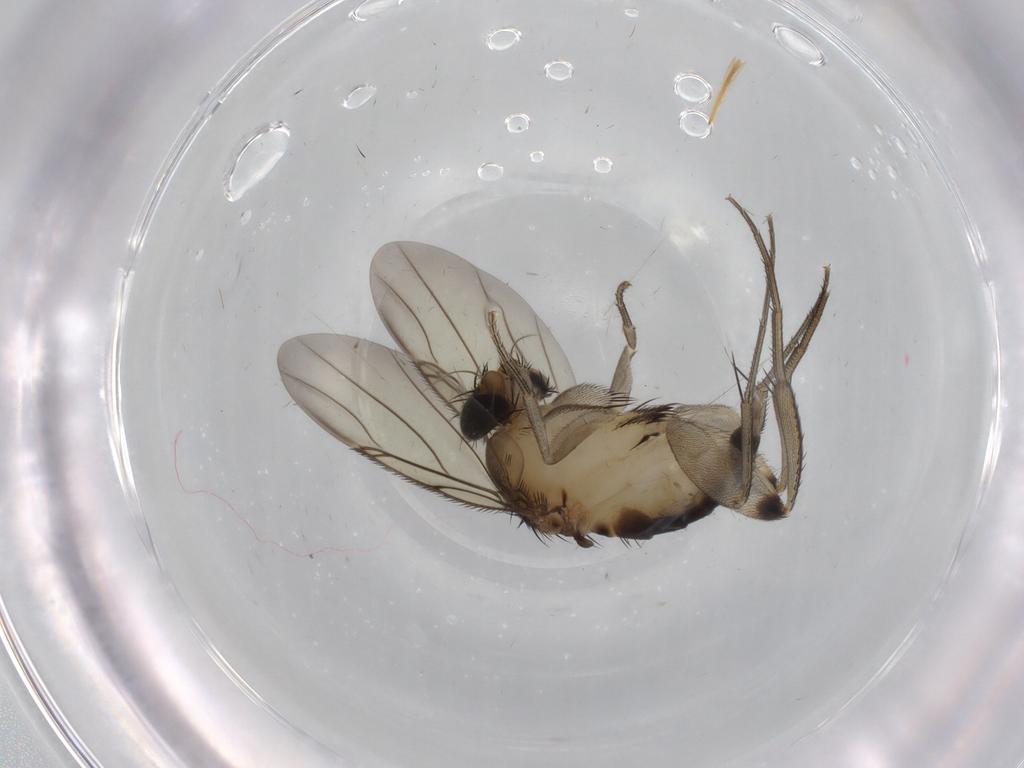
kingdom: Animalia
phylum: Arthropoda
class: Insecta
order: Diptera
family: Phoridae
